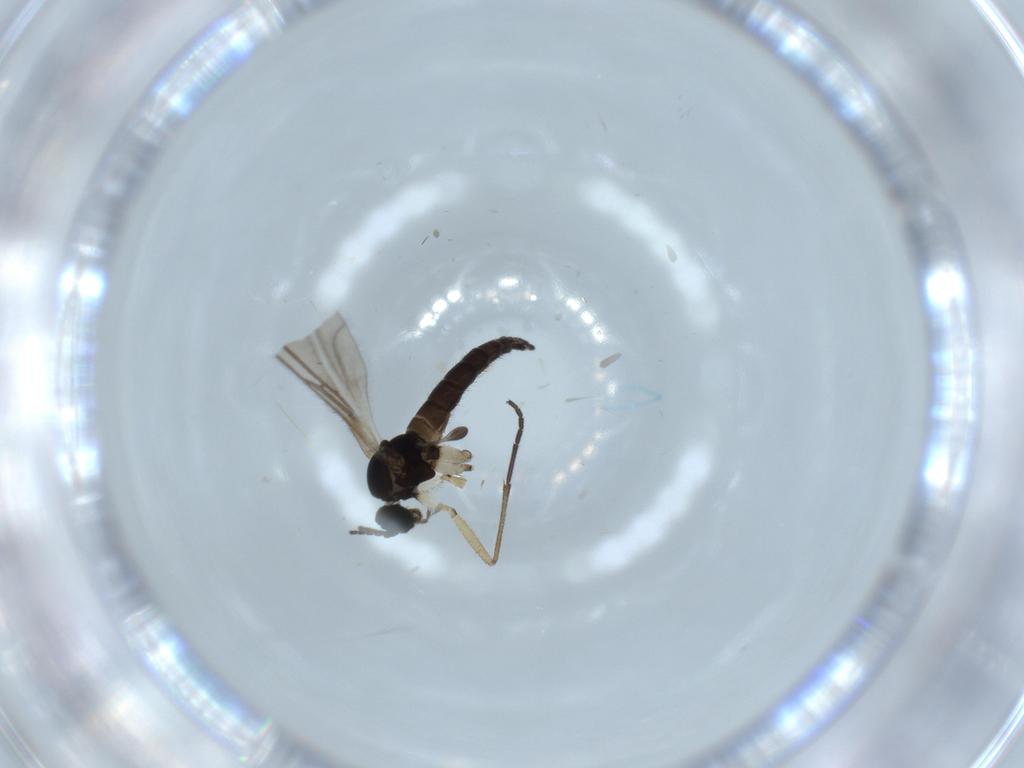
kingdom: Animalia
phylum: Arthropoda
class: Insecta
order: Diptera
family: Sciaridae
